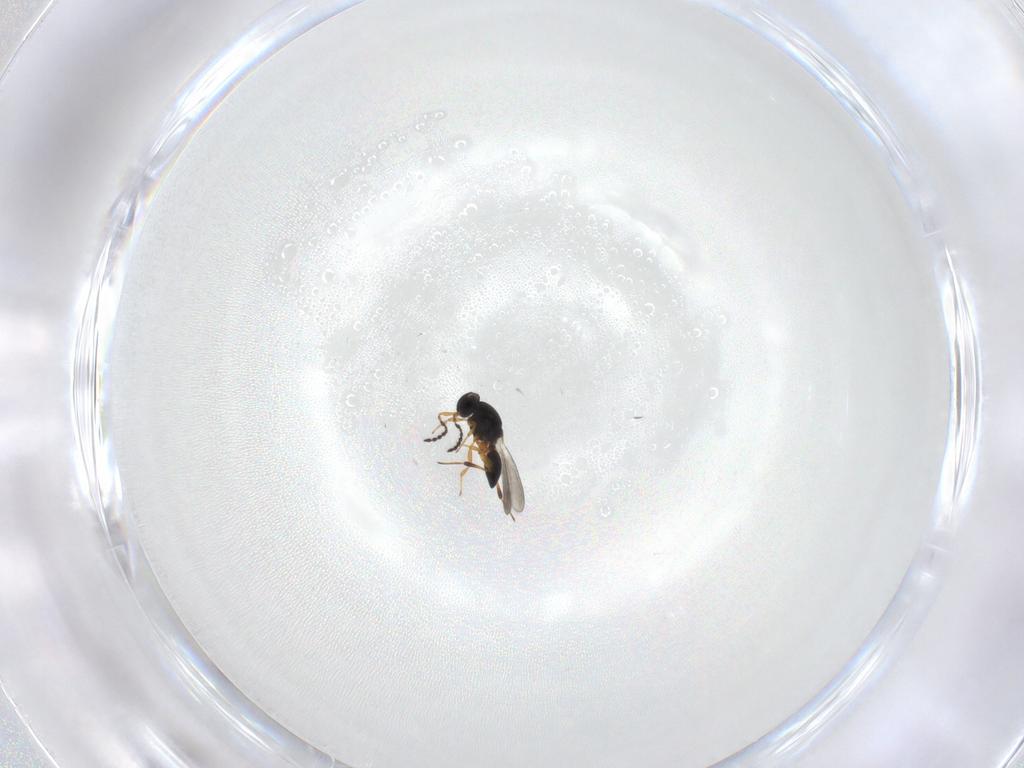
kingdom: Animalia
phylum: Arthropoda
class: Insecta
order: Hymenoptera
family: Platygastridae
